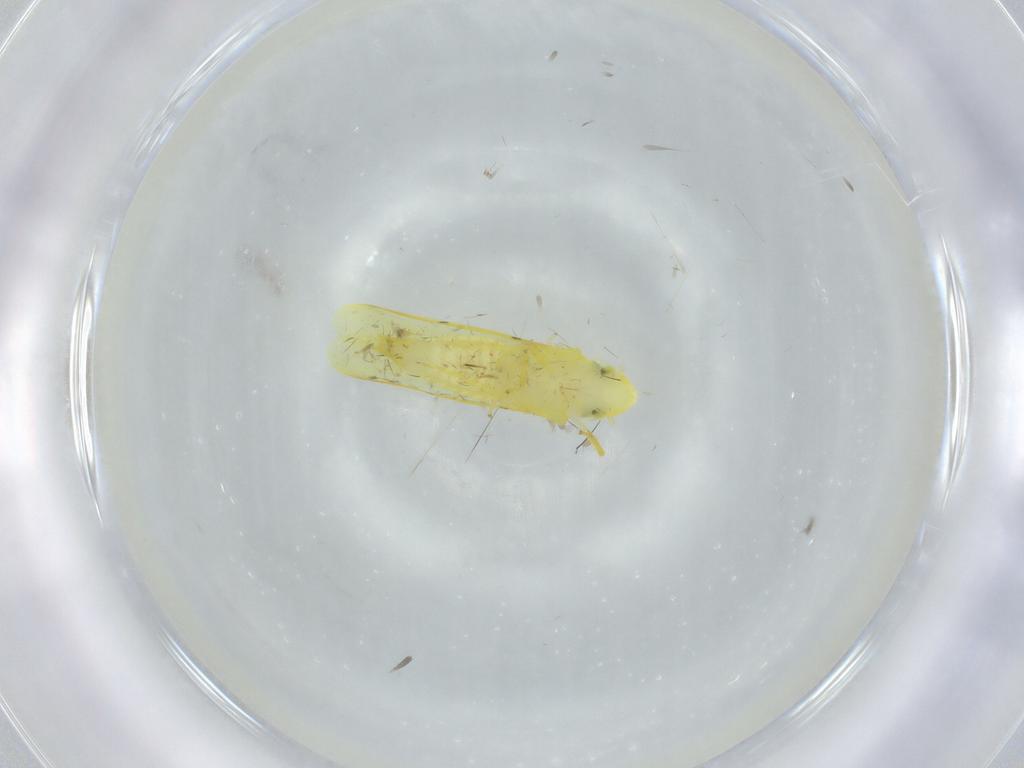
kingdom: Animalia
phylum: Arthropoda
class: Insecta
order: Hemiptera
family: Cicadellidae
